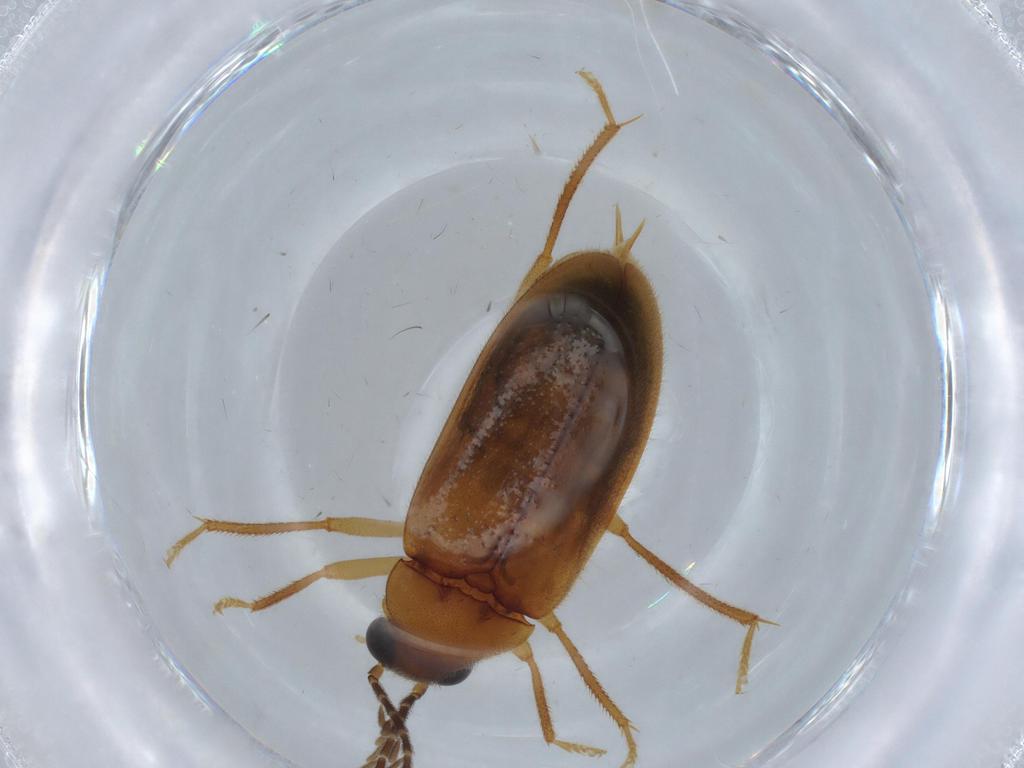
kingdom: Animalia
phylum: Arthropoda
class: Insecta
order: Coleoptera
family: Ptilodactylidae
